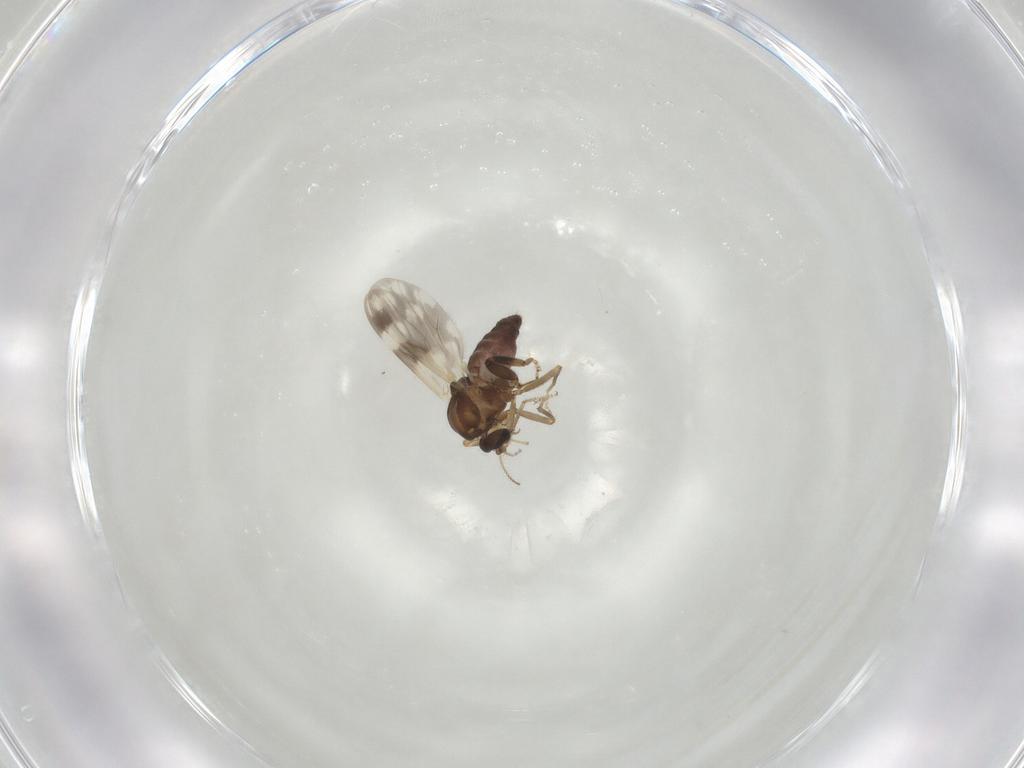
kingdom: Animalia
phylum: Arthropoda
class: Insecta
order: Diptera
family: Ceratopogonidae
